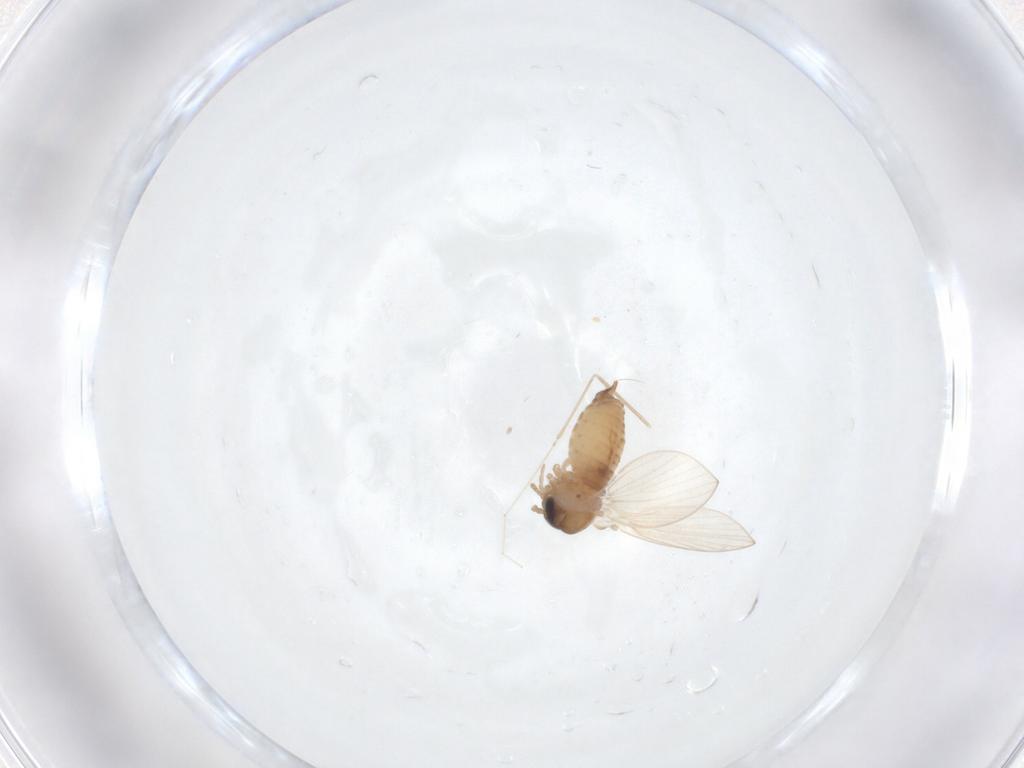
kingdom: Animalia
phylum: Arthropoda
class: Insecta
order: Diptera
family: Psychodidae
